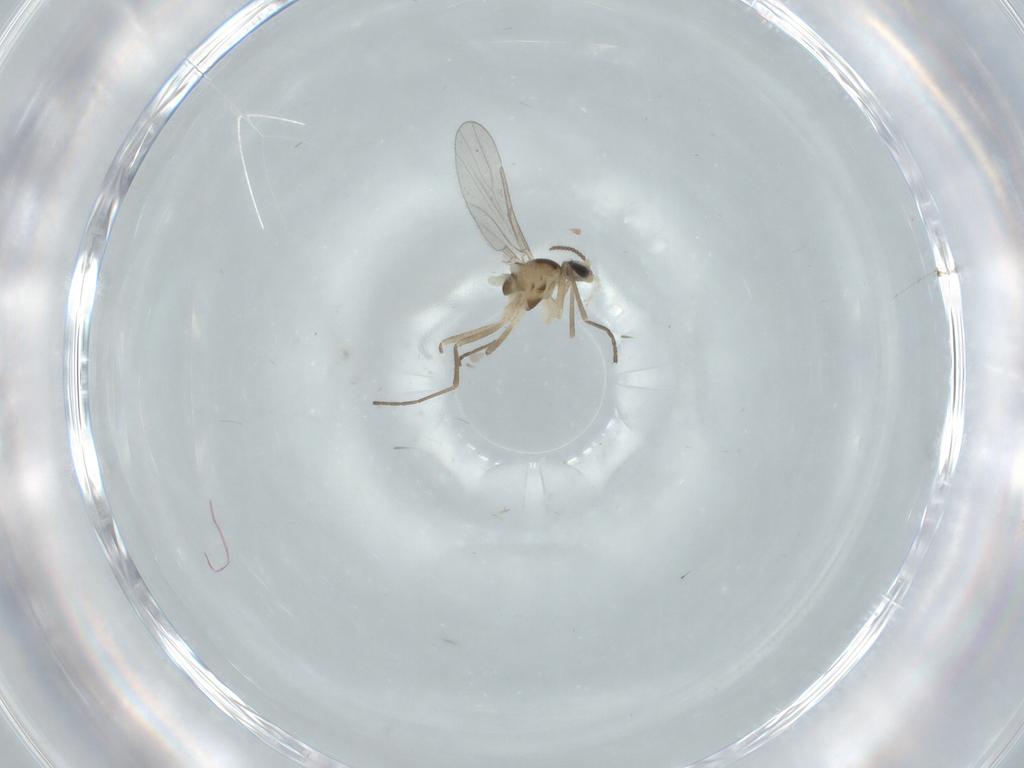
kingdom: Animalia
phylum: Arthropoda
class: Insecta
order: Diptera
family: Cecidomyiidae
